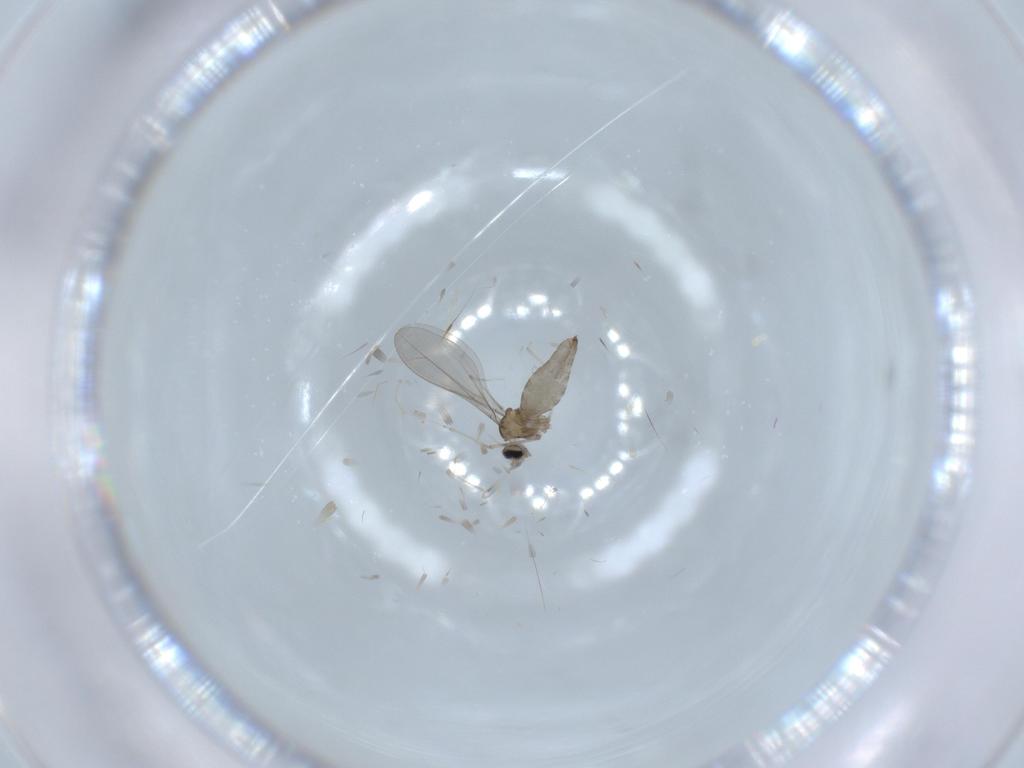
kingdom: Animalia
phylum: Arthropoda
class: Insecta
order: Diptera
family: Cecidomyiidae
